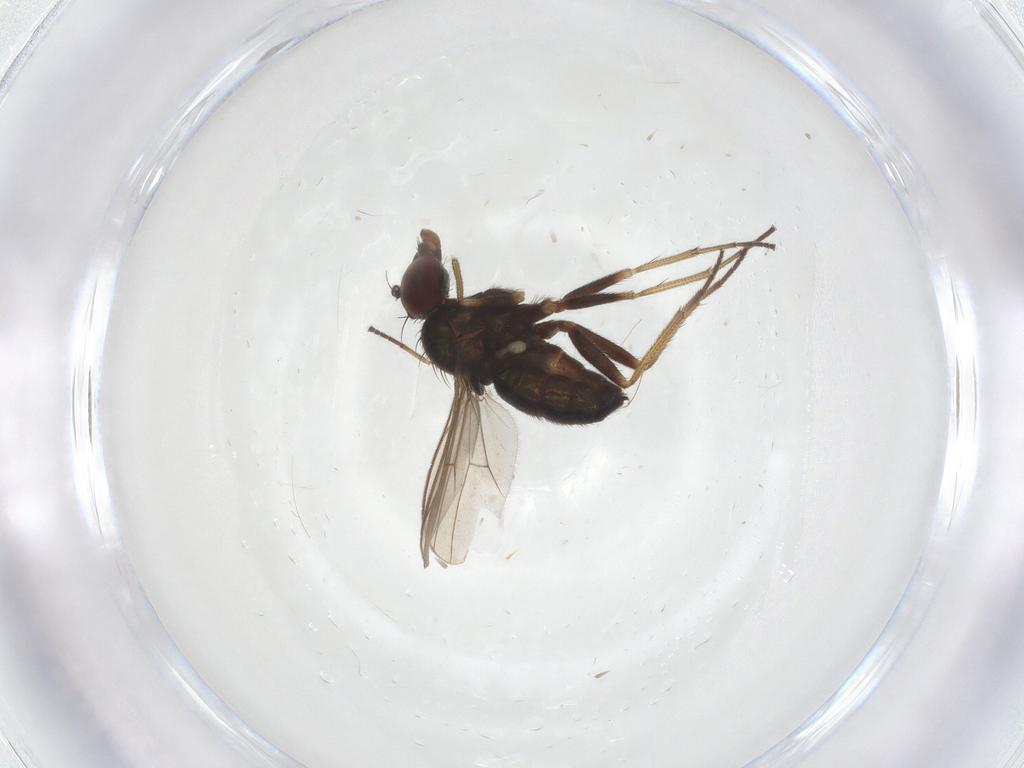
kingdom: Animalia
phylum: Arthropoda
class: Insecta
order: Diptera
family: Dolichopodidae
